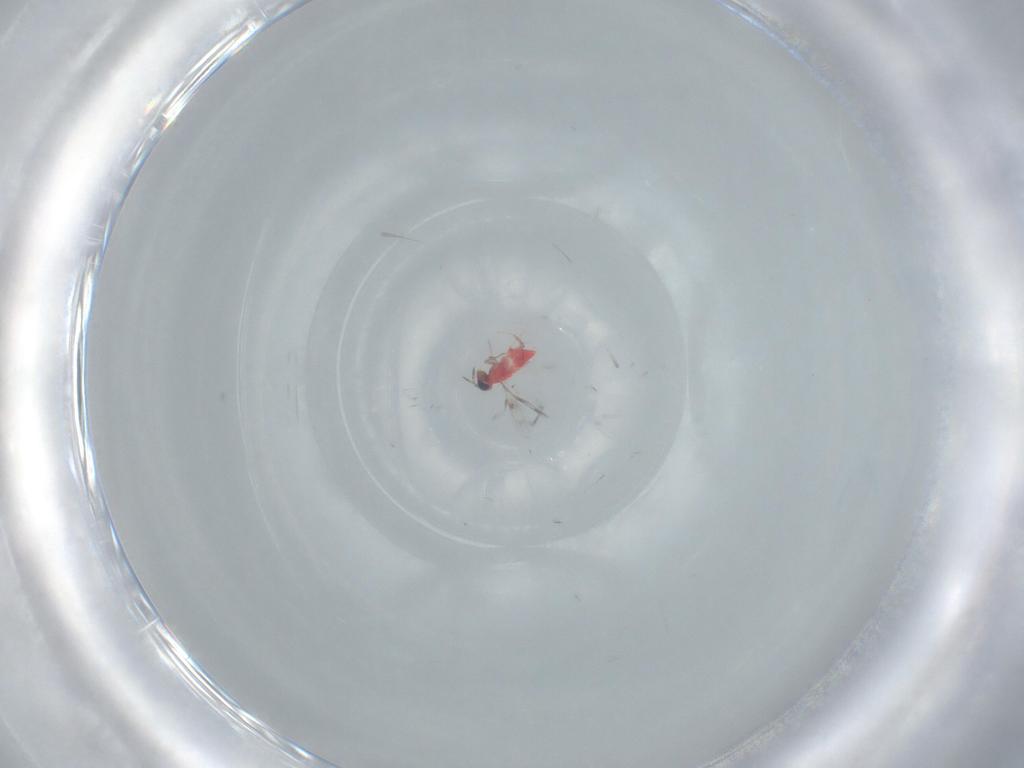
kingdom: Animalia
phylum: Arthropoda
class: Insecta
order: Hymenoptera
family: Trichogrammatidae
